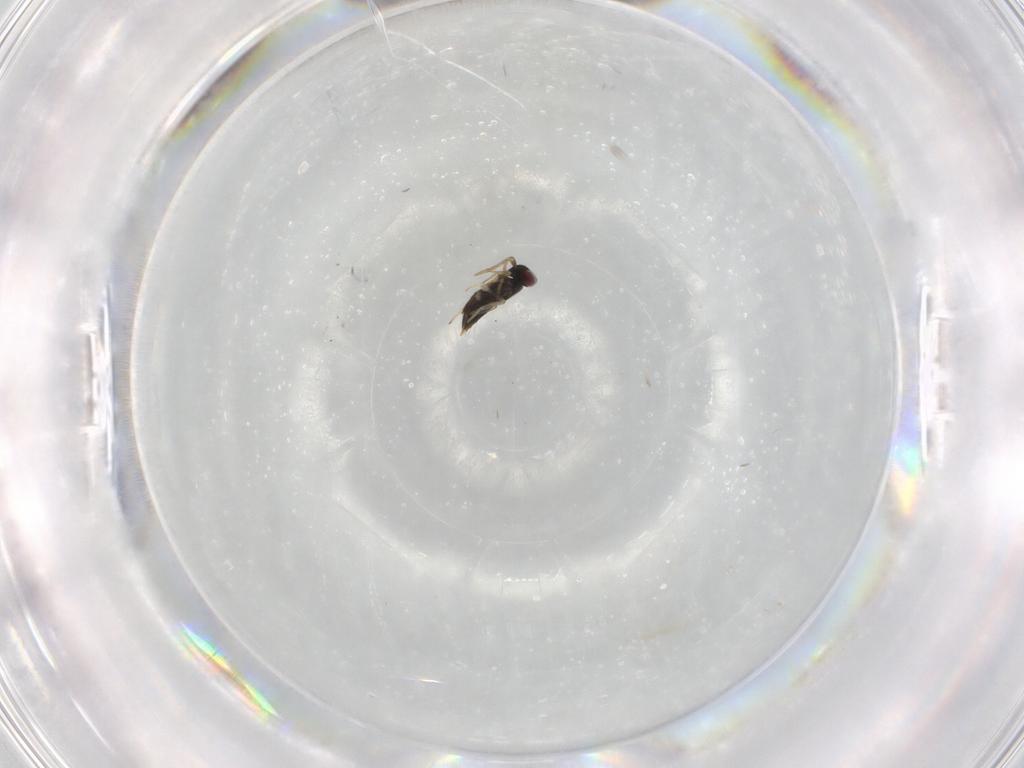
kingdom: Animalia
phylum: Arthropoda
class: Insecta
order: Hymenoptera
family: Aphelinidae
